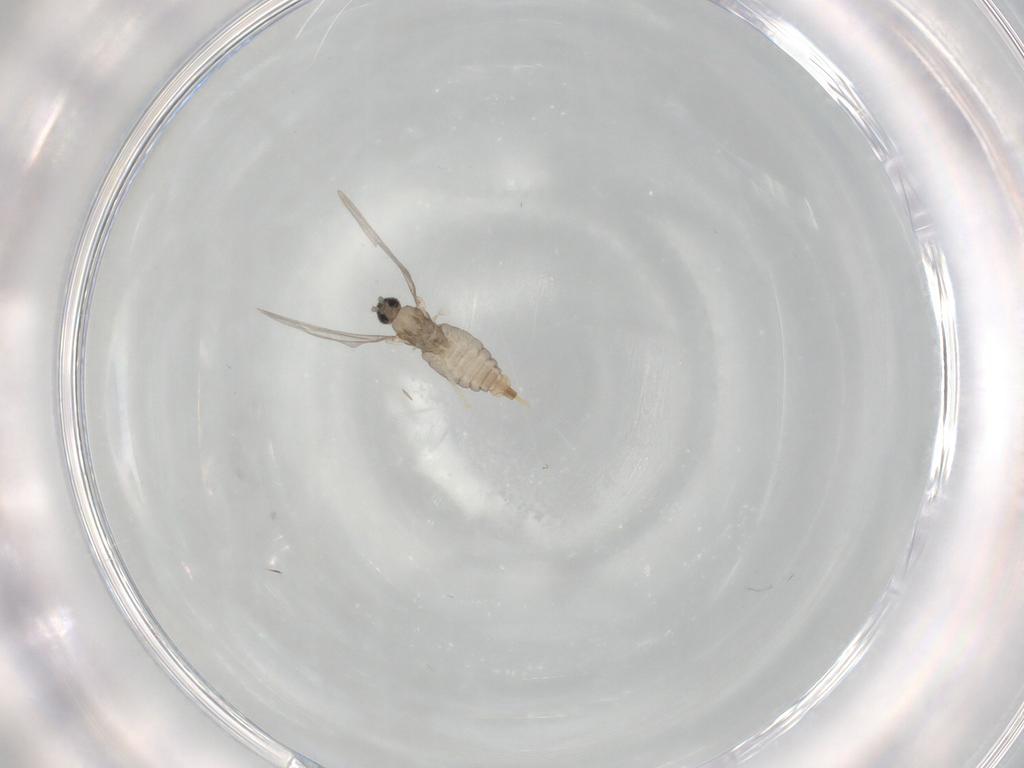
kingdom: Animalia
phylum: Arthropoda
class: Insecta
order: Diptera
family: Cecidomyiidae
